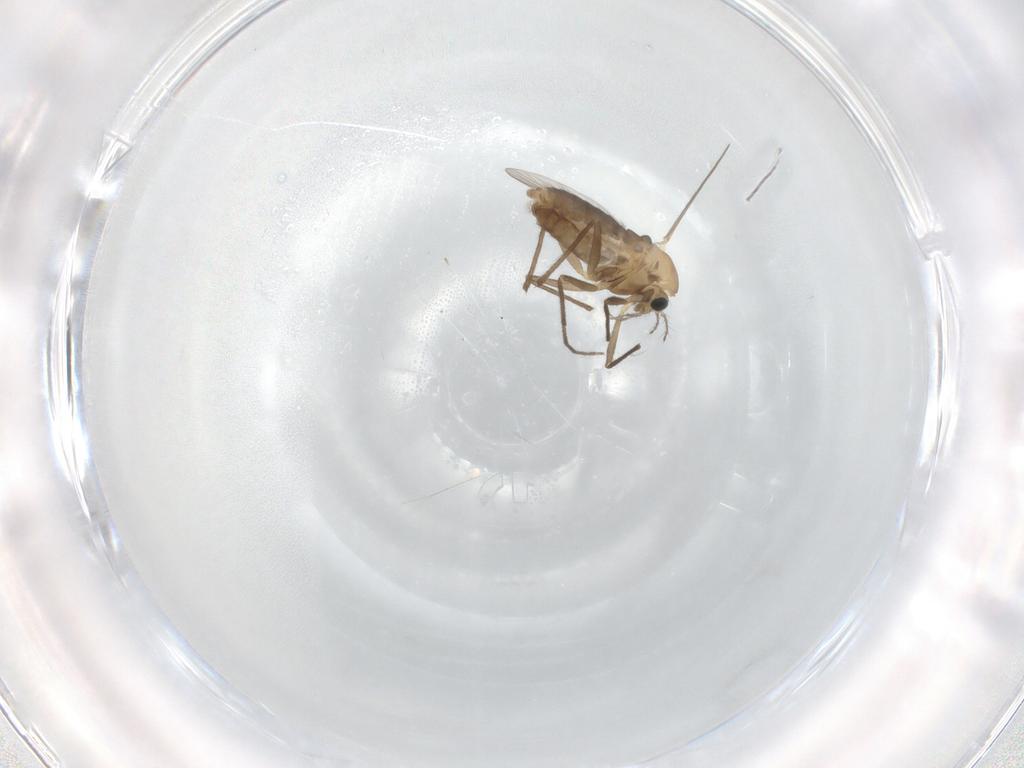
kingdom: Animalia
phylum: Arthropoda
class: Insecta
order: Diptera
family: Chironomidae
